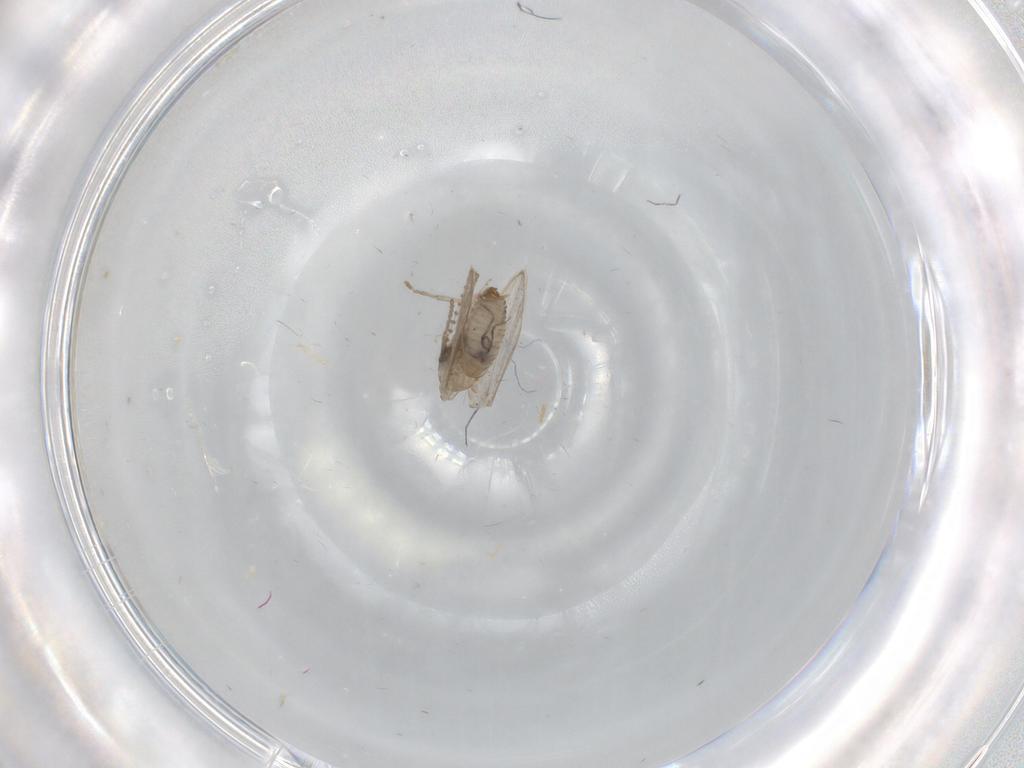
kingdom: Animalia
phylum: Arthropoda
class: Insecta
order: Diptera
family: Psychodidae
